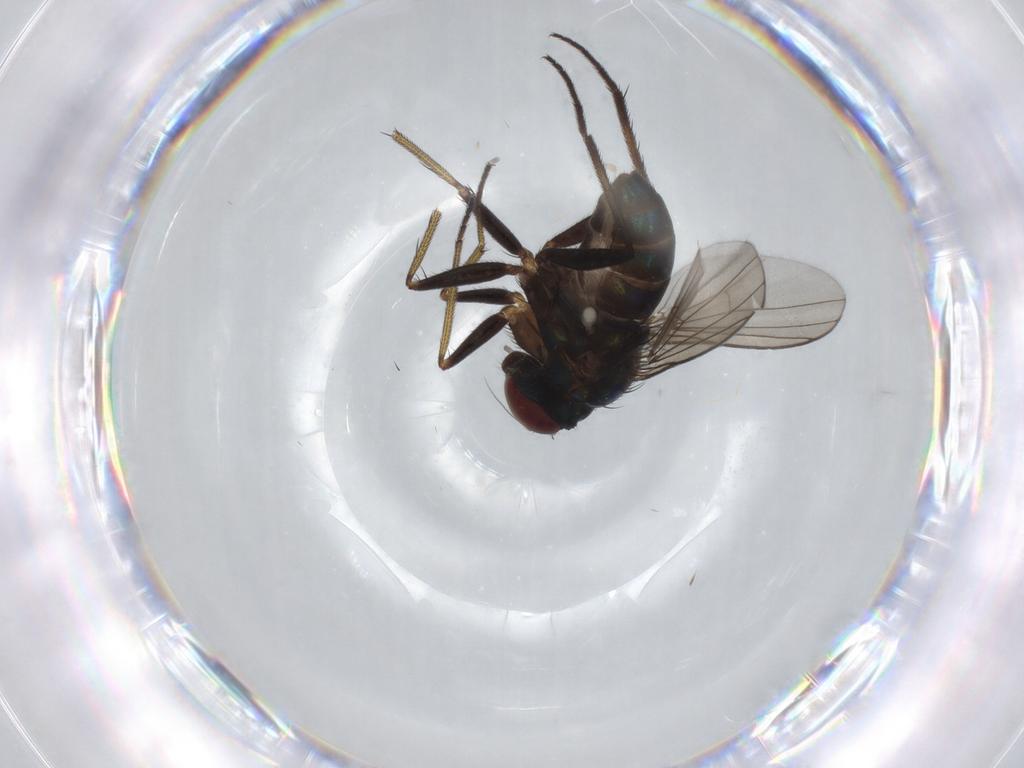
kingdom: Animalia
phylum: Arthropoda
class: Insecta
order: Diptera
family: Dolichopodidae
